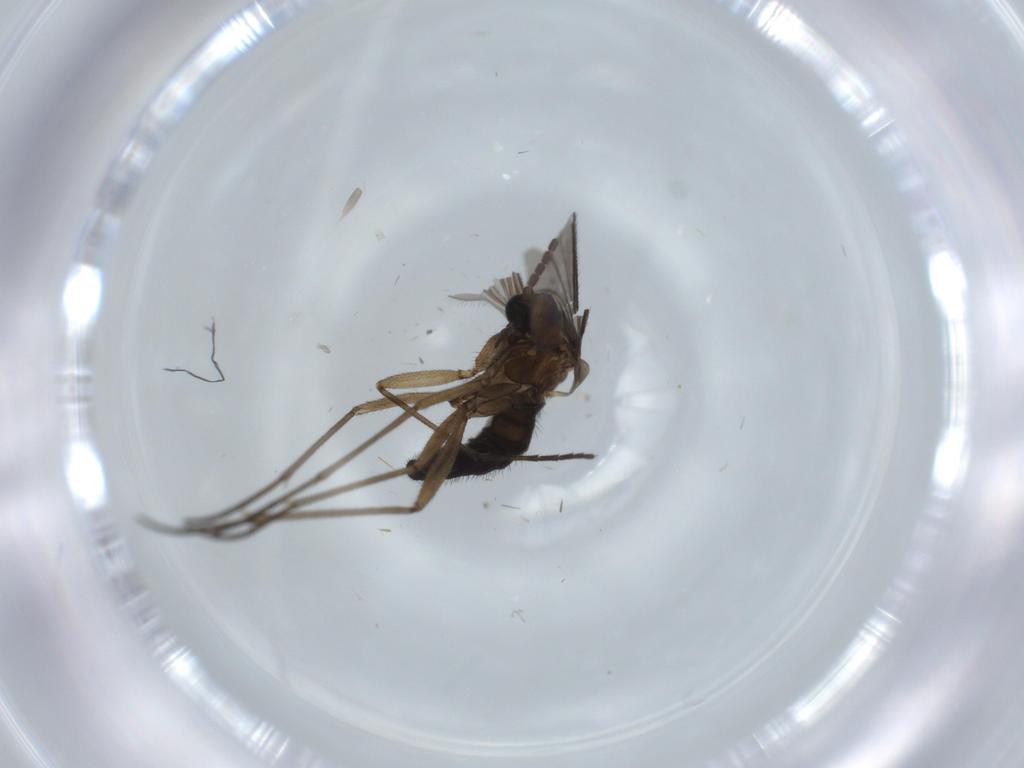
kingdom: Animalia
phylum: Arthropoda
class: Insecta
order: Diptera
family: Sciaridae
